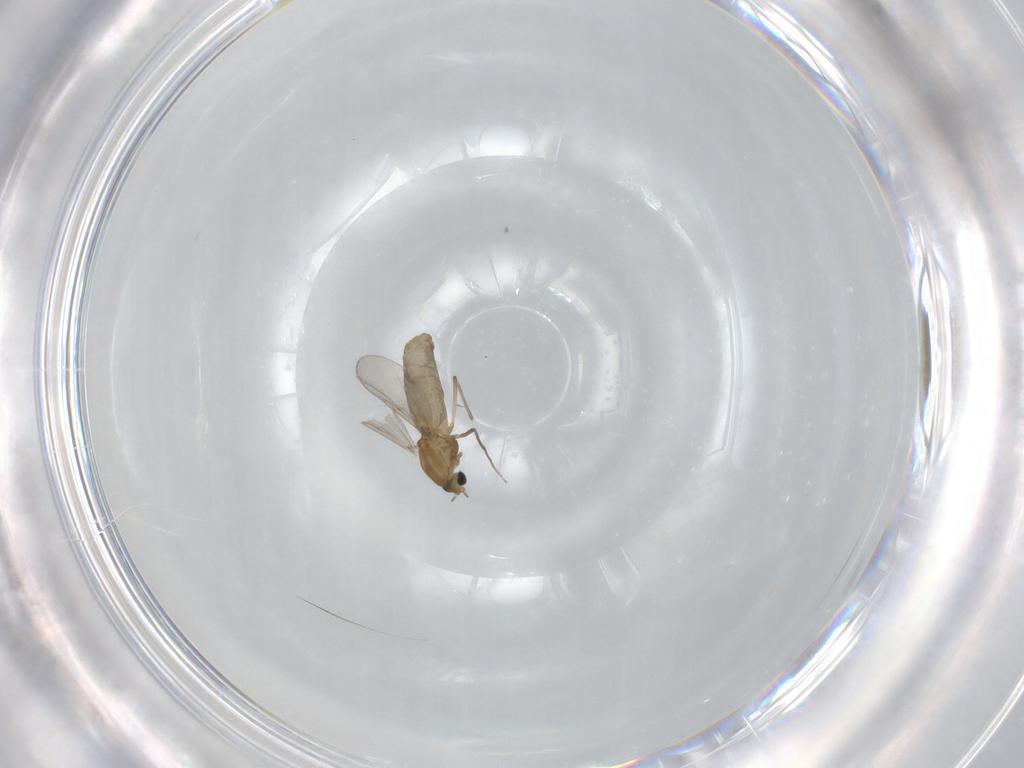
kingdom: Animalia
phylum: Arthropoda
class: Insecta
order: Diptera
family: Chironomidae
